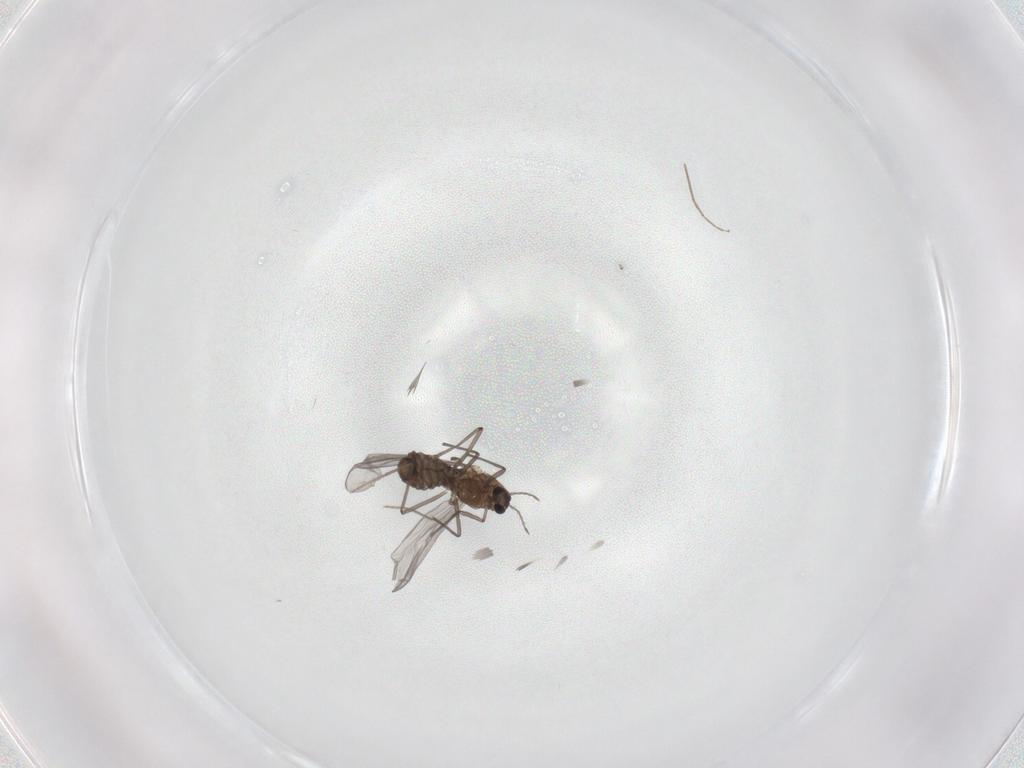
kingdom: Animalia
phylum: Arthropoda
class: Insecta
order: Diptera
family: Chironomidae
